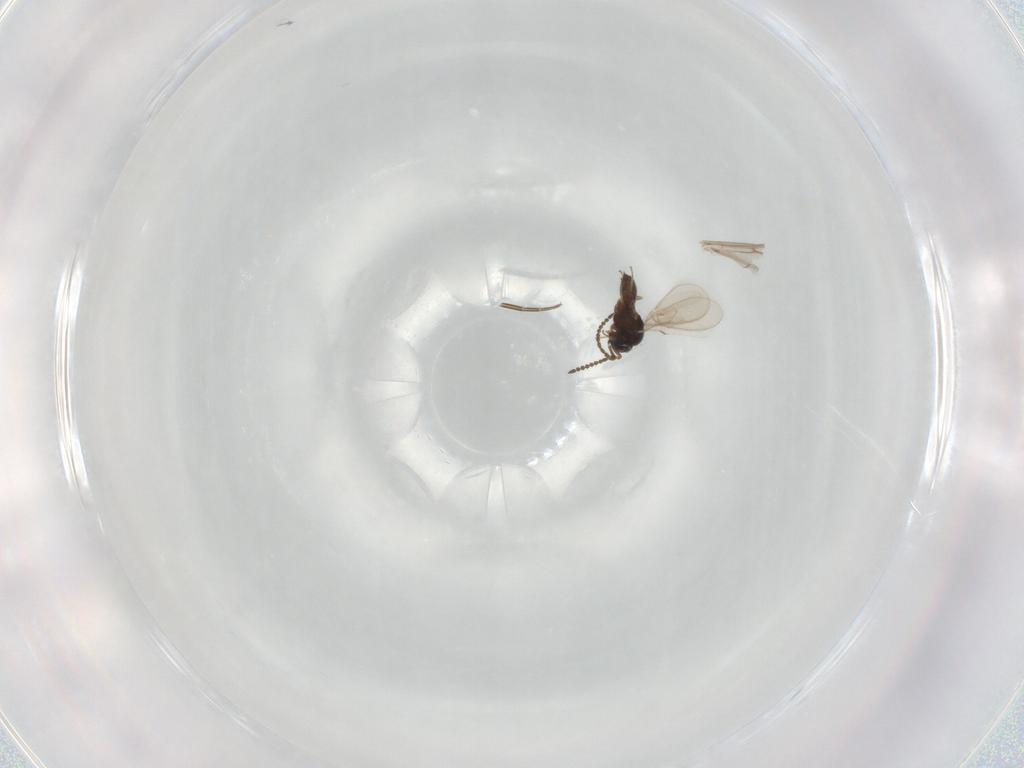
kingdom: Animalia
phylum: Arthropoda
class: Insecta
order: Hymenoptera
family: Scelionidae
